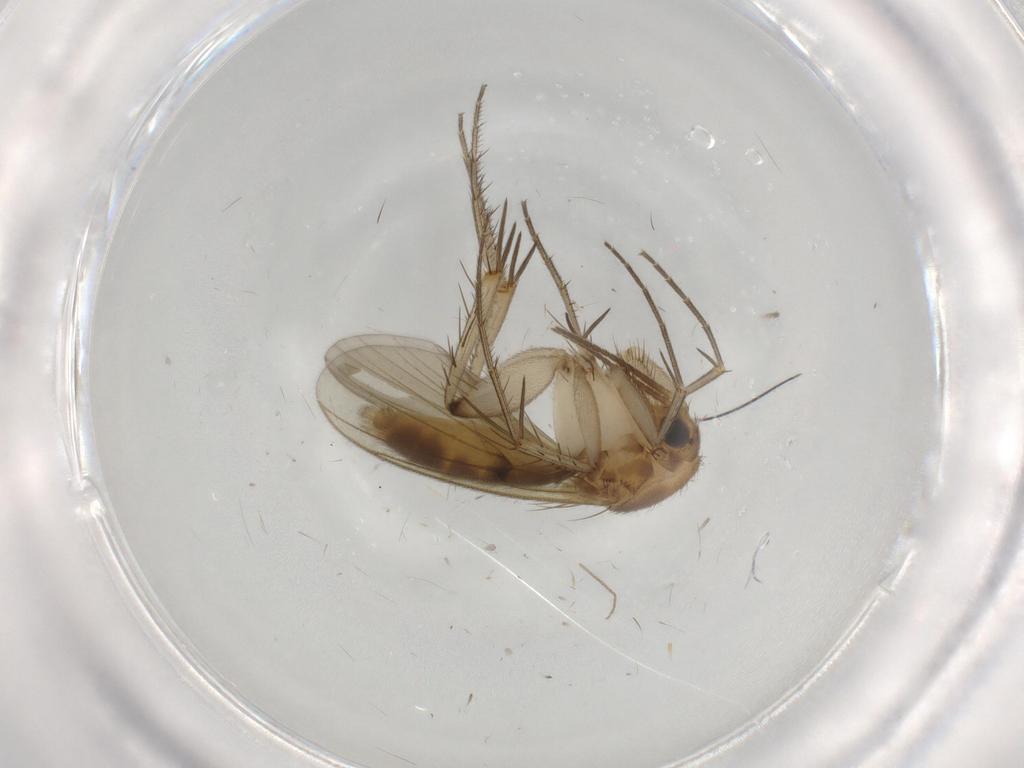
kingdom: Animalia
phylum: Arthropoda
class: Insecta
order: Diptera
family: Phoridae
